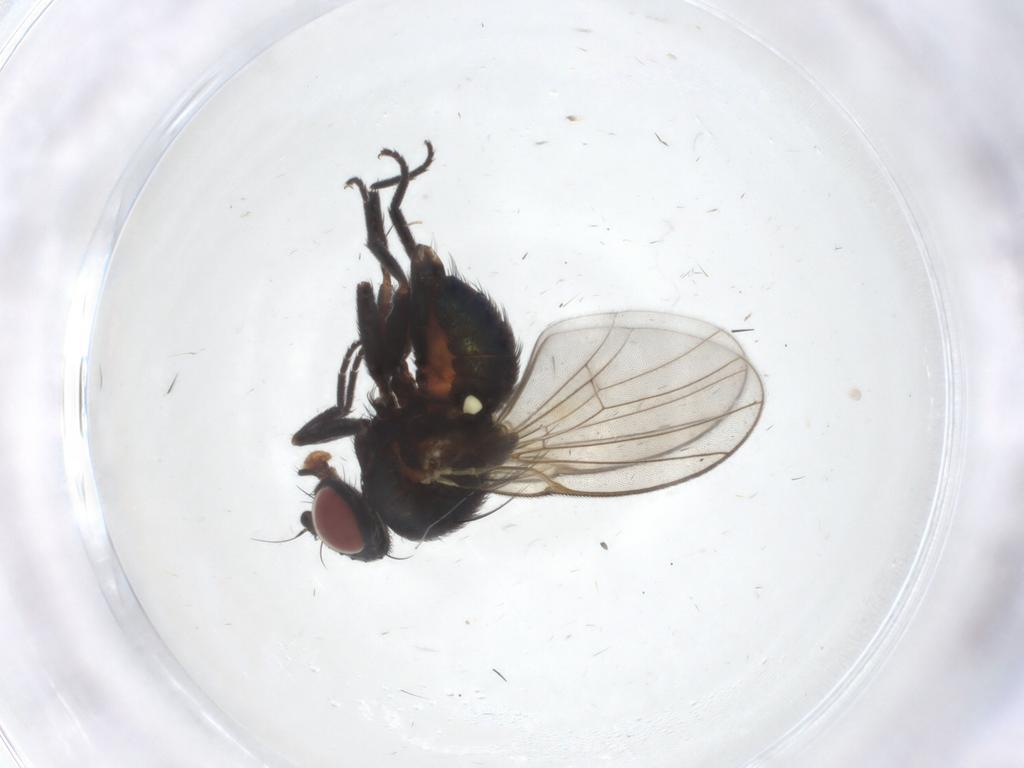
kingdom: Animalia
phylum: Arthropoda
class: Insecta
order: Diptera
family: Agromyzidae
